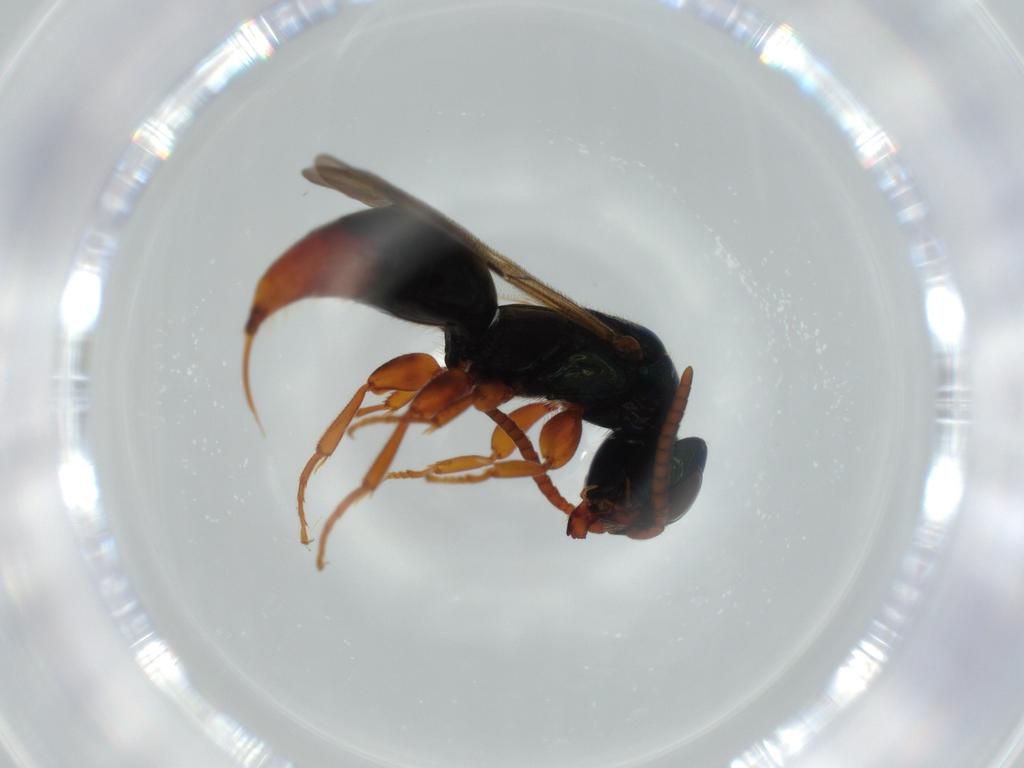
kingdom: Animalia
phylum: Arthropoda
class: Insecta
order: Hymenoptera
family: Bethylidae
